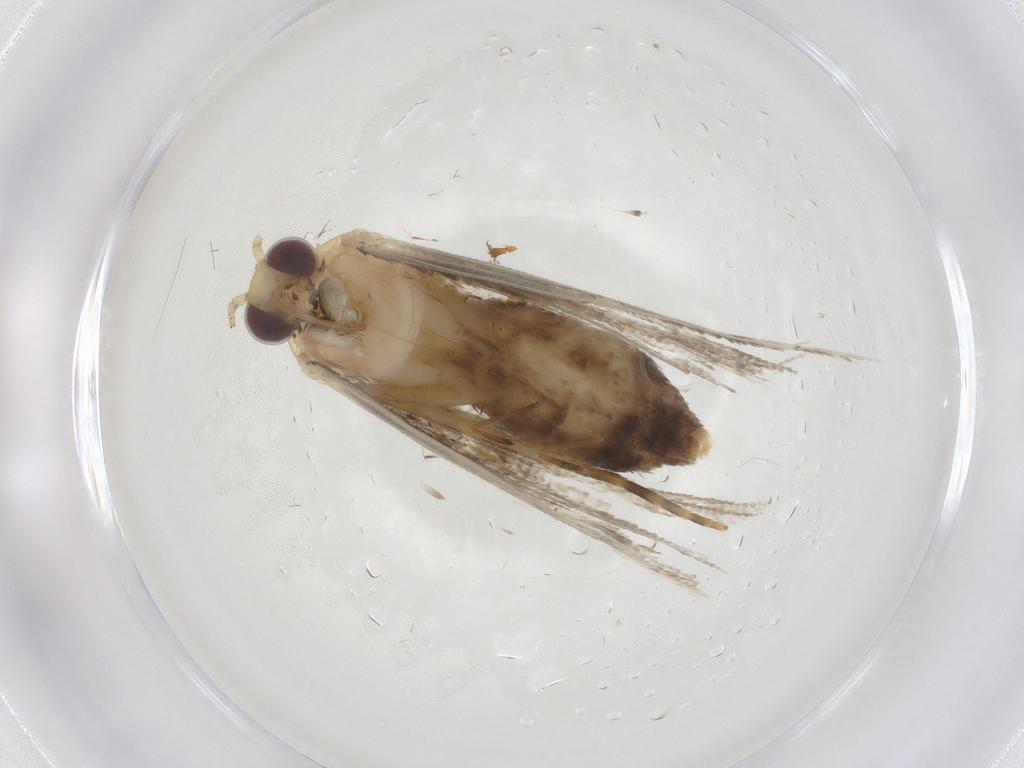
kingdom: Animalia
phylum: Arthropoda
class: Insecta
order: Lepidoptera
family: Erebidae
